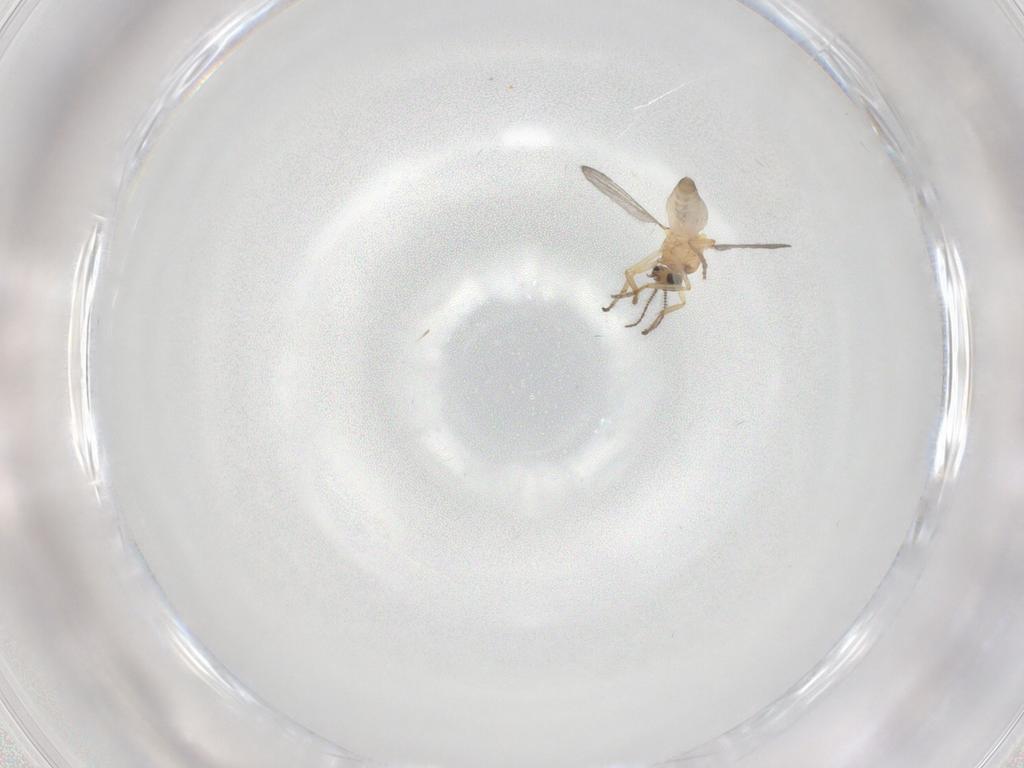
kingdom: Animalia
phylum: Arthropoda
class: Insecta
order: Diptera
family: Ceratopogonidae
